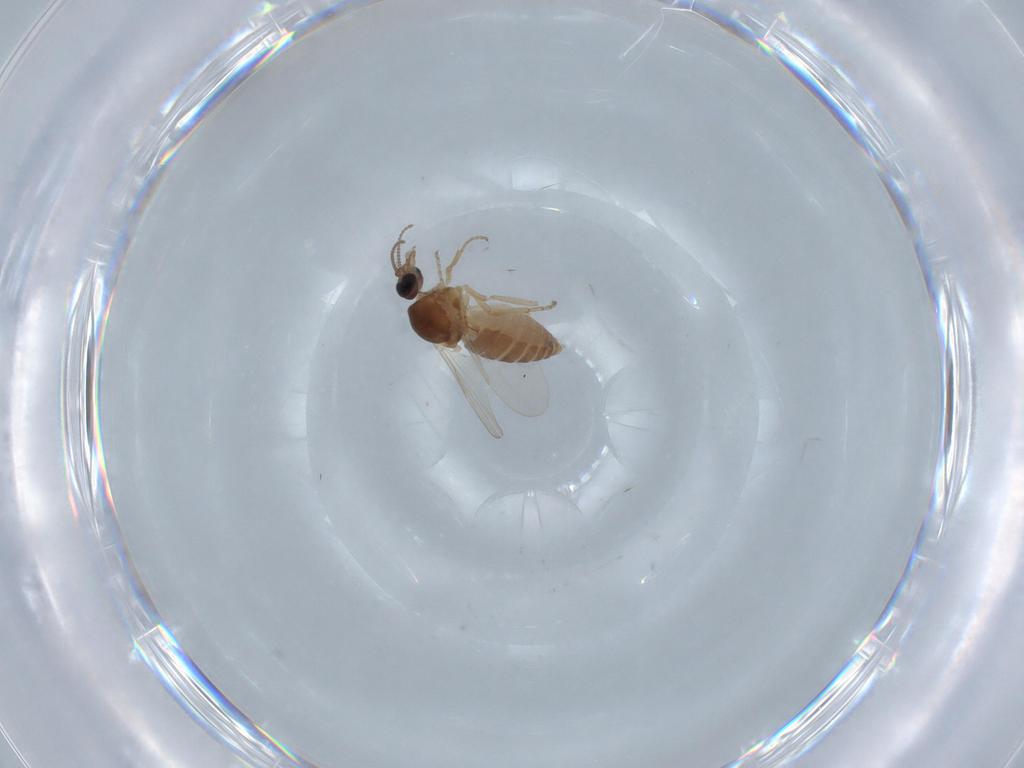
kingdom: Animalia
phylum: Arthropoda
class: Insecta
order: Diptera
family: Ceratopogonidae
